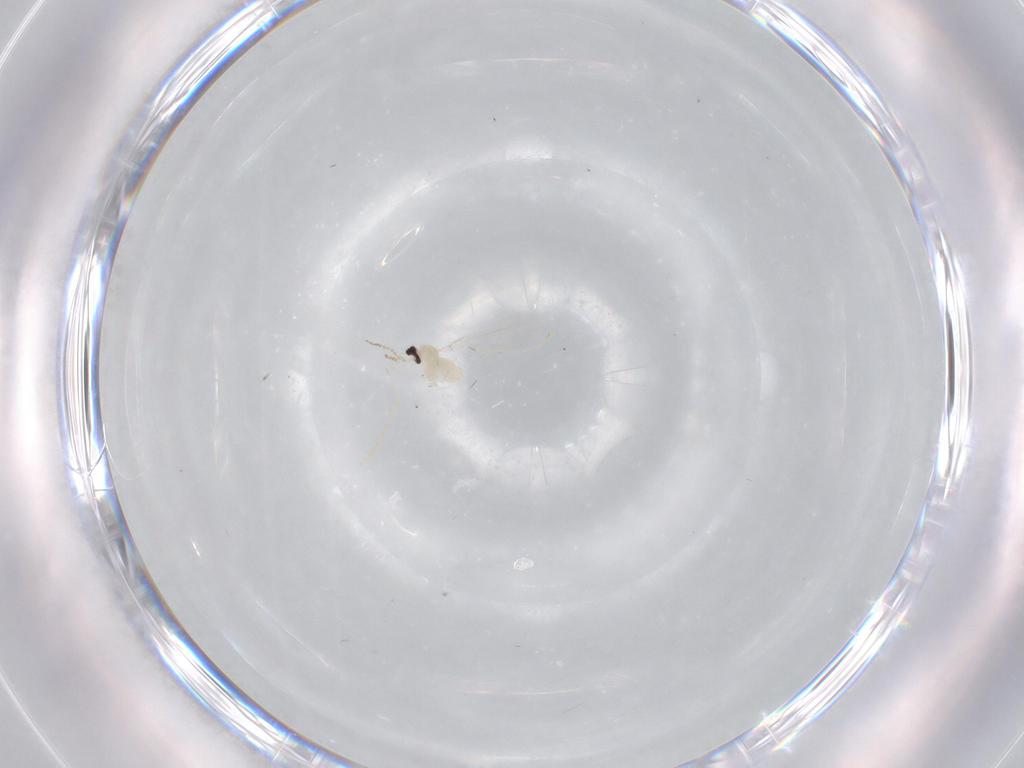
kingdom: Animalia
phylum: Arthropoda
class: Insecta
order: Diptera
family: Cecidomyiidae
